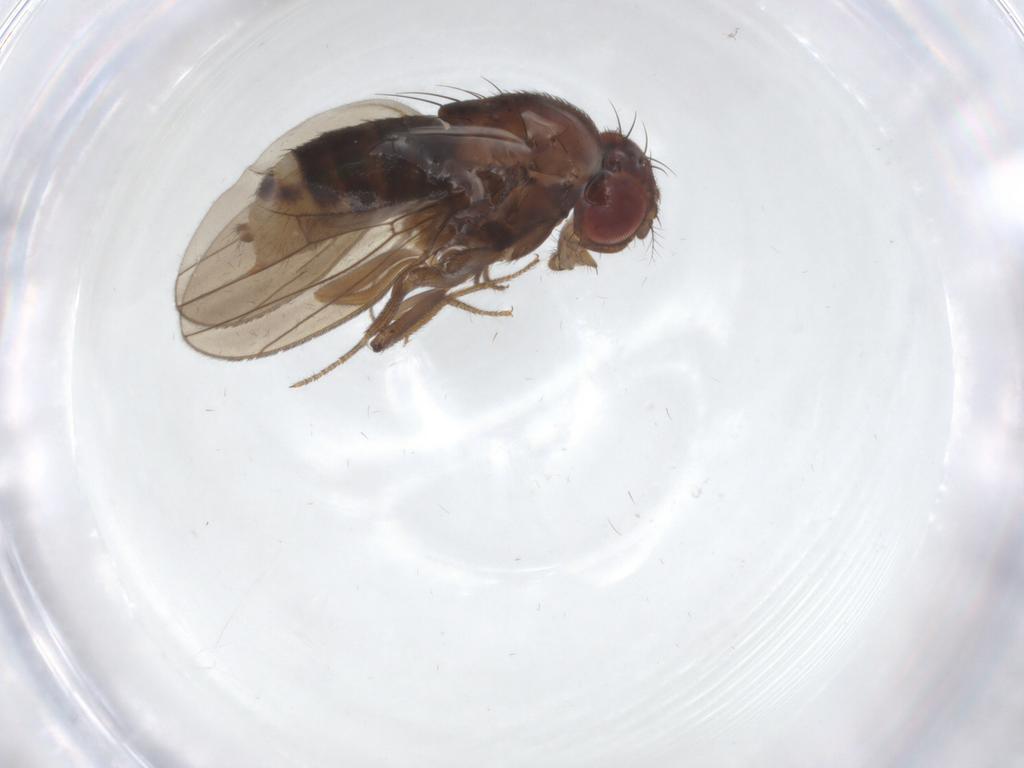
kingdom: Animalia
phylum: Arthropoda
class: Insecta
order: Diptera
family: Drosophilidae
